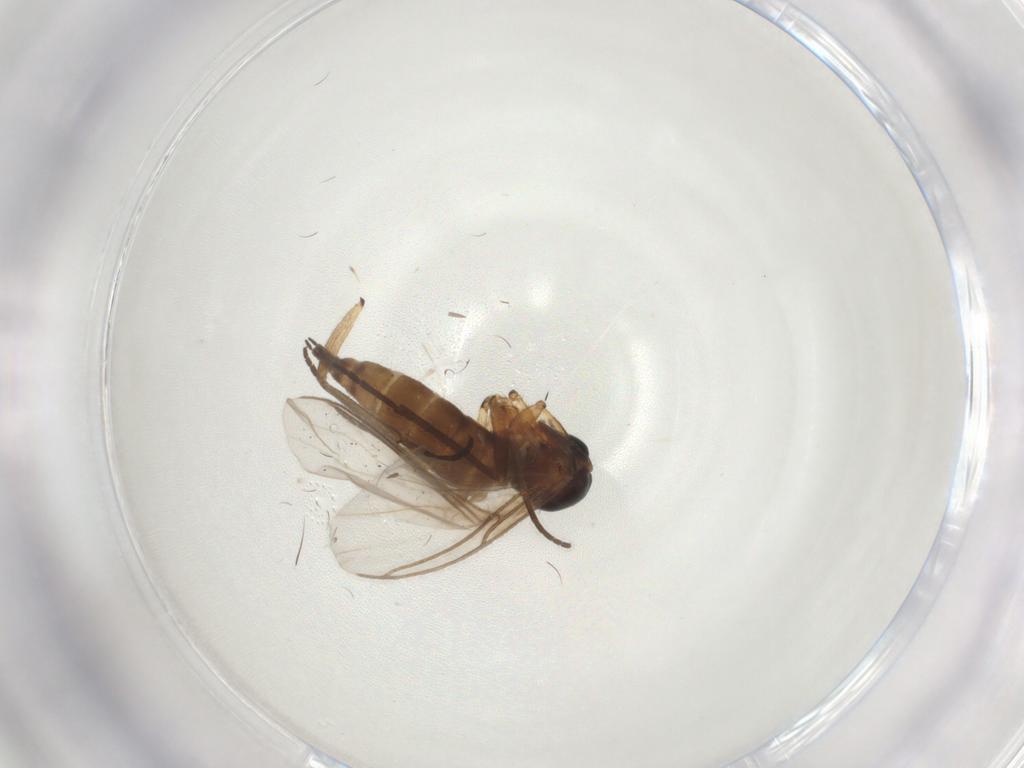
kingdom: Animalia
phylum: Arthropoda
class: Insecta
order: Diptera
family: Sciaridae
